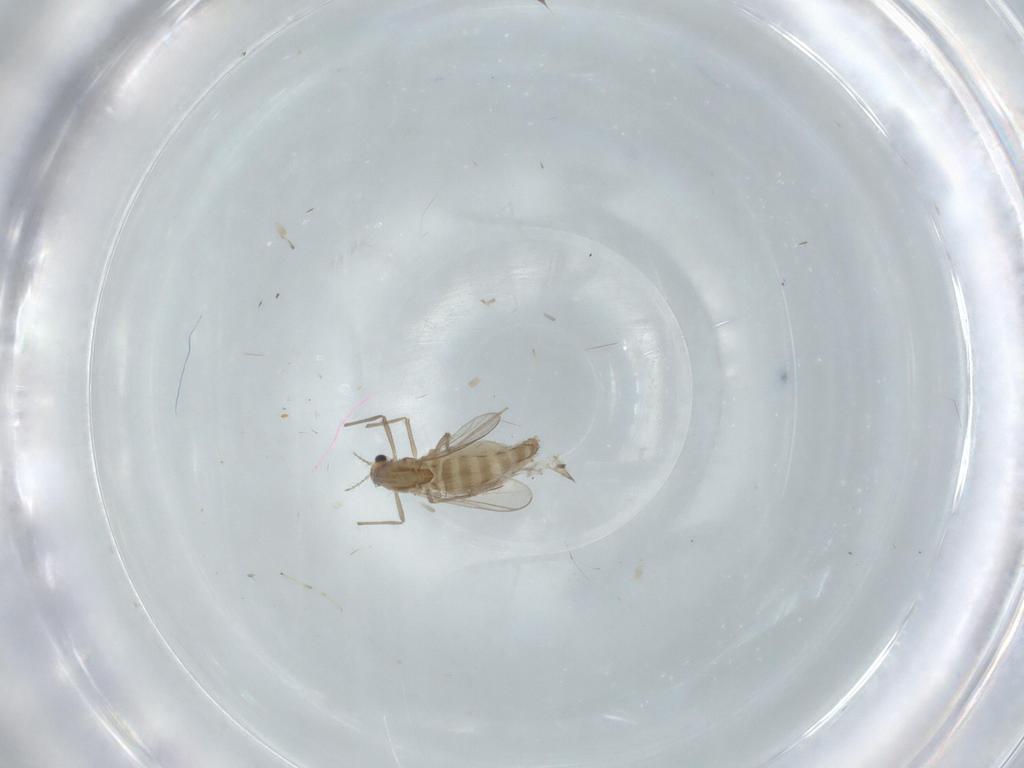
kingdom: Animalia
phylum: Arthropoda
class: Insecta
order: Diptera
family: Chironomidae
